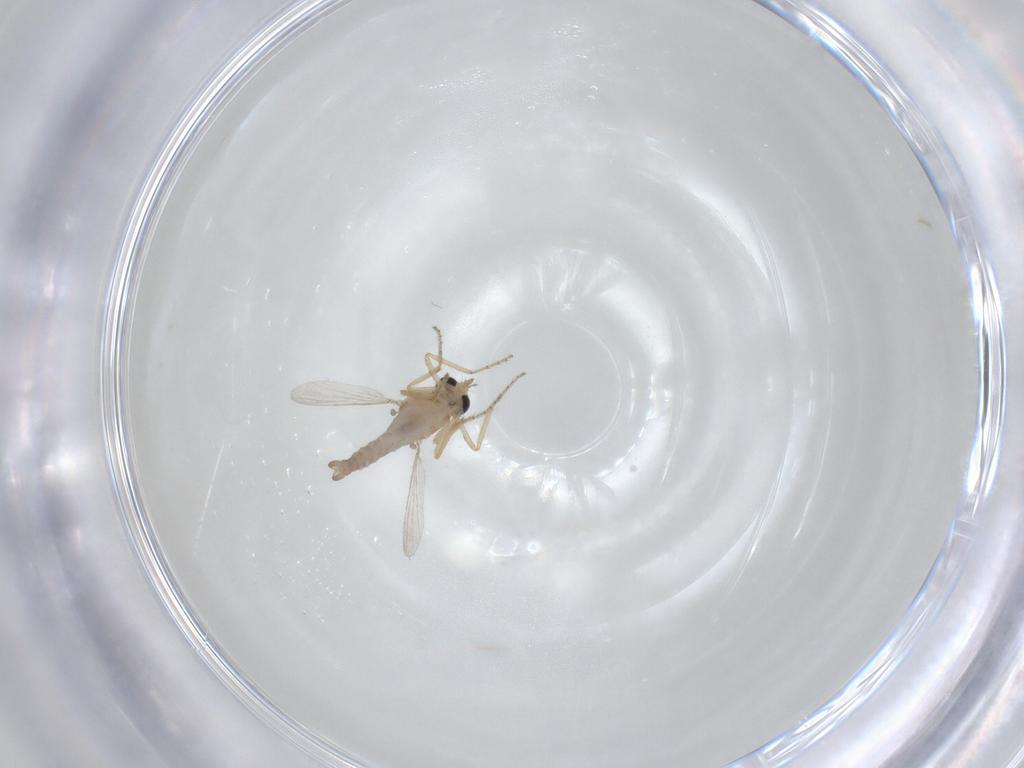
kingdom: Animalia
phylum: Arthropoda
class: Insecta
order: Diptera
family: Ceratopogonidae
